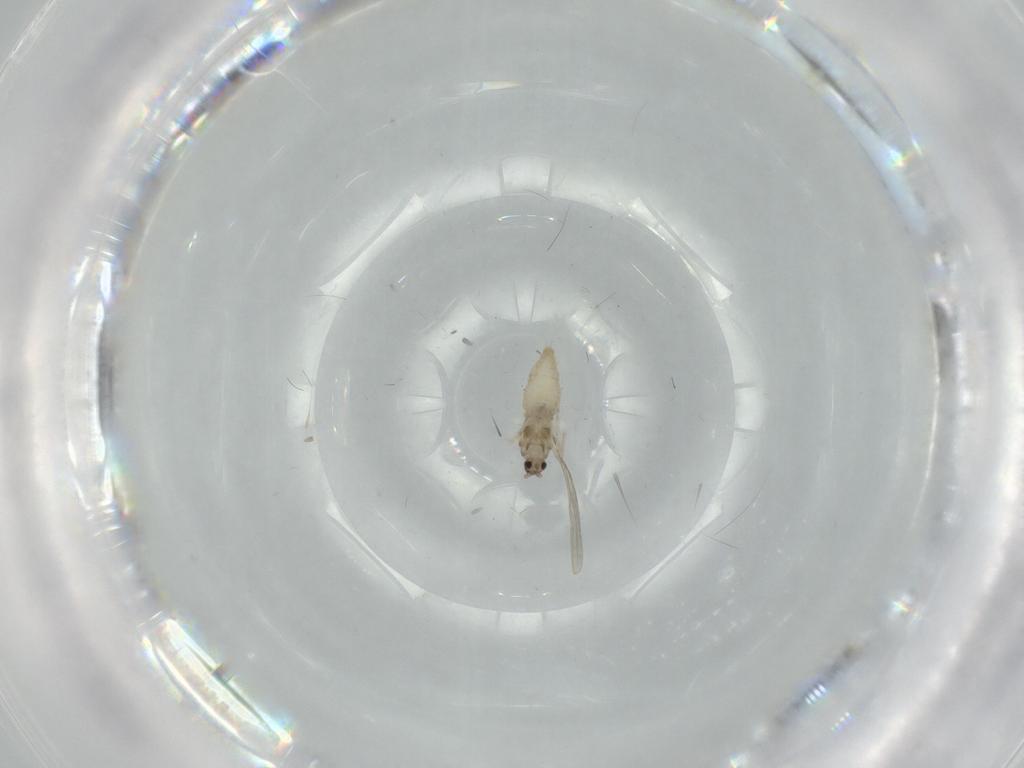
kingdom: Animalia
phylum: Arthropoda
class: Insecta
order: Diptera
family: Cecidomyiidae
